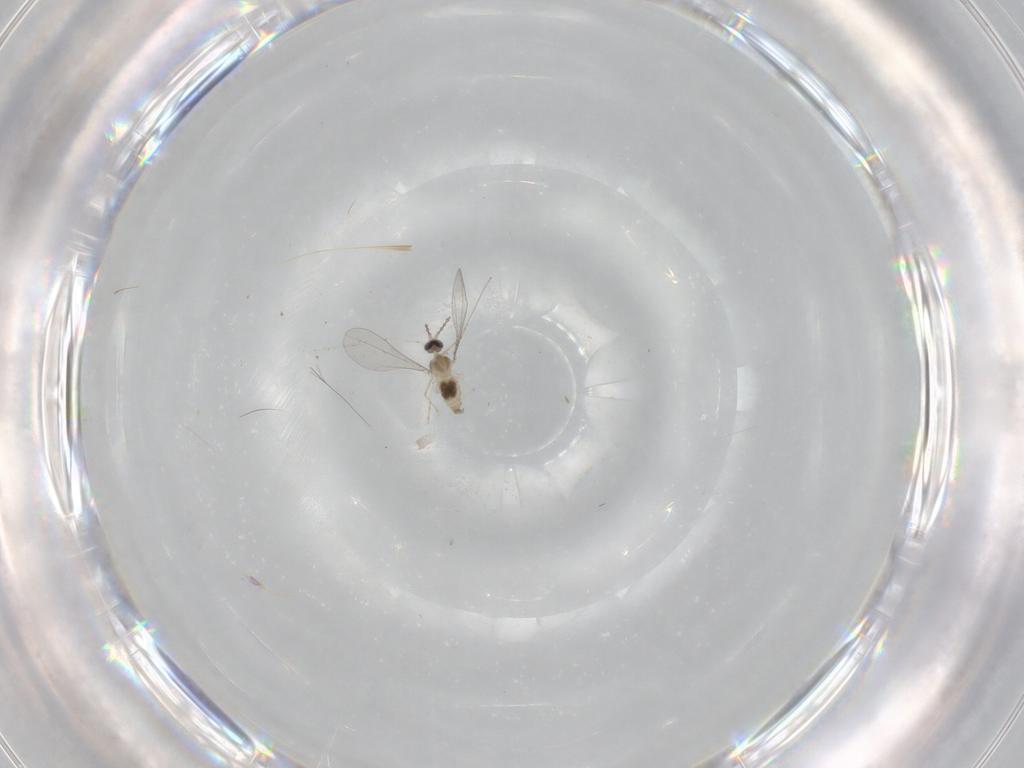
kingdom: Animalia
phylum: Arthropoda
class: Insecta
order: Diptera
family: Cecidomyiidae
